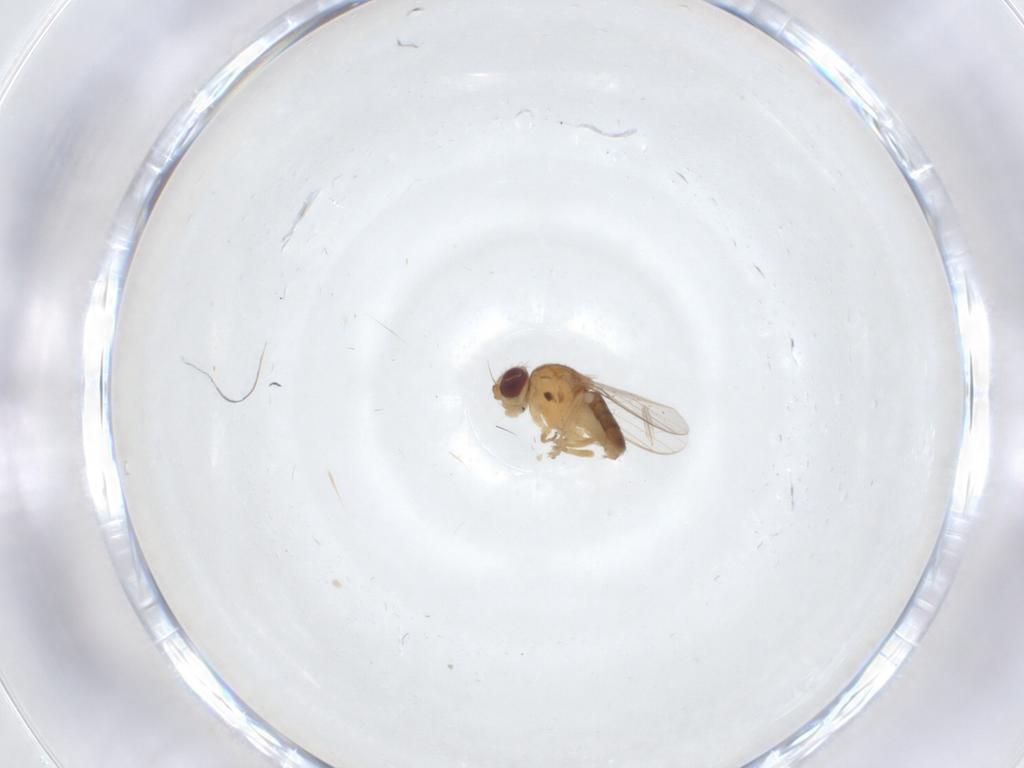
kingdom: Animalia
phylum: Arthropoda
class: Insecta
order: Diptera
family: Chloropidae
